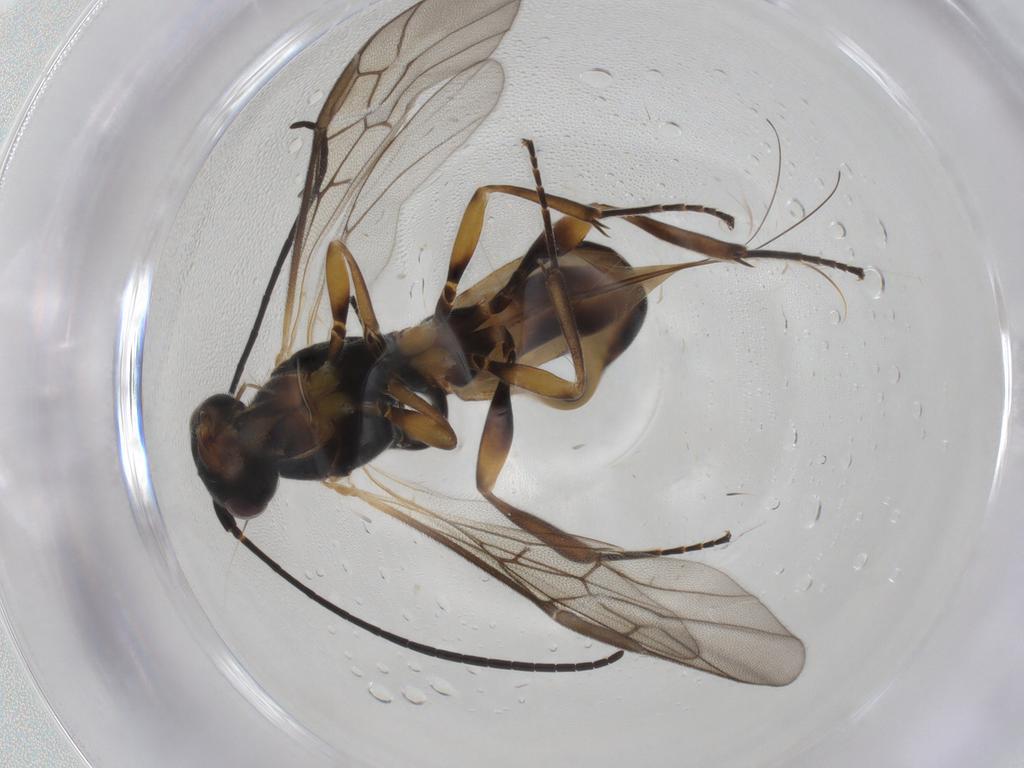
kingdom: Animalia
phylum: Arthropoda
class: Insecta
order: Hymenoptera
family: Braconidae
